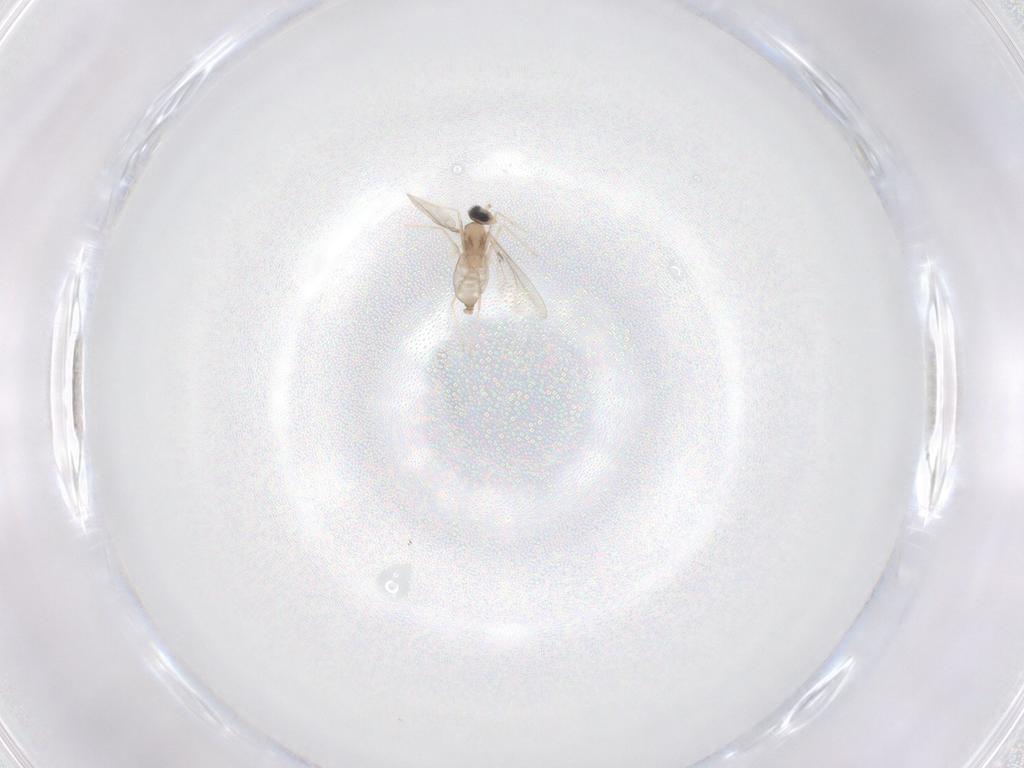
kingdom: Animalia
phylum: Arthropoda
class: Insecta
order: Diptera
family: Cecidomyiidae
